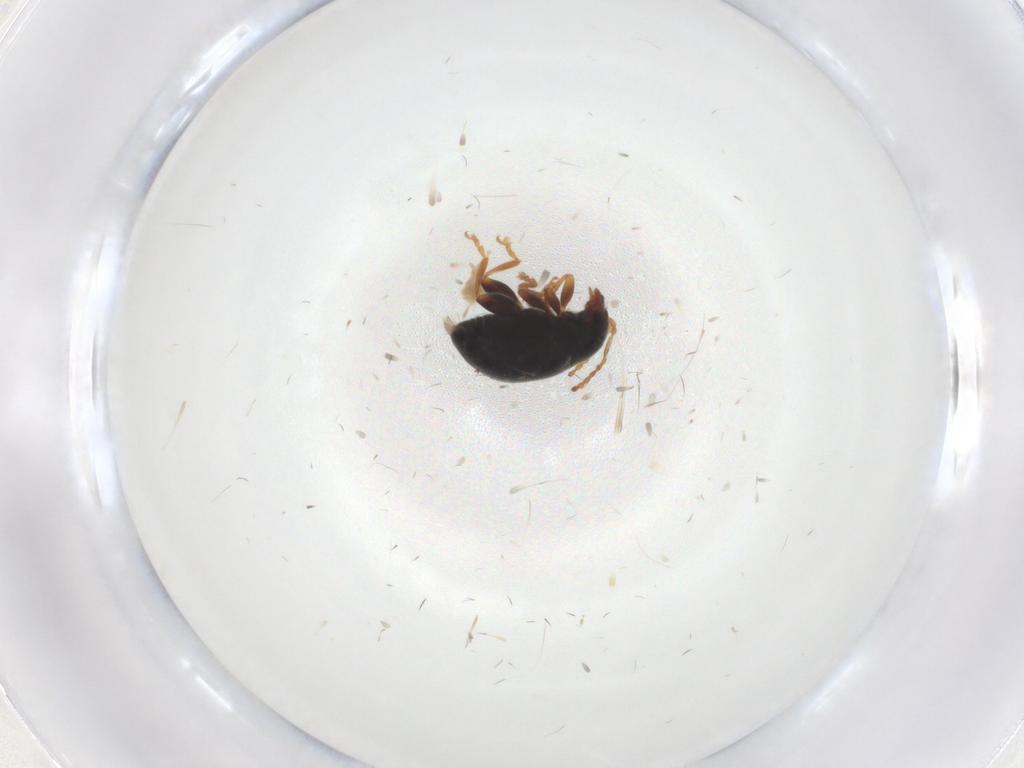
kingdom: Animalia
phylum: Arthropoda
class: Insecta
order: Coleoptera
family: Chrysomelidae
